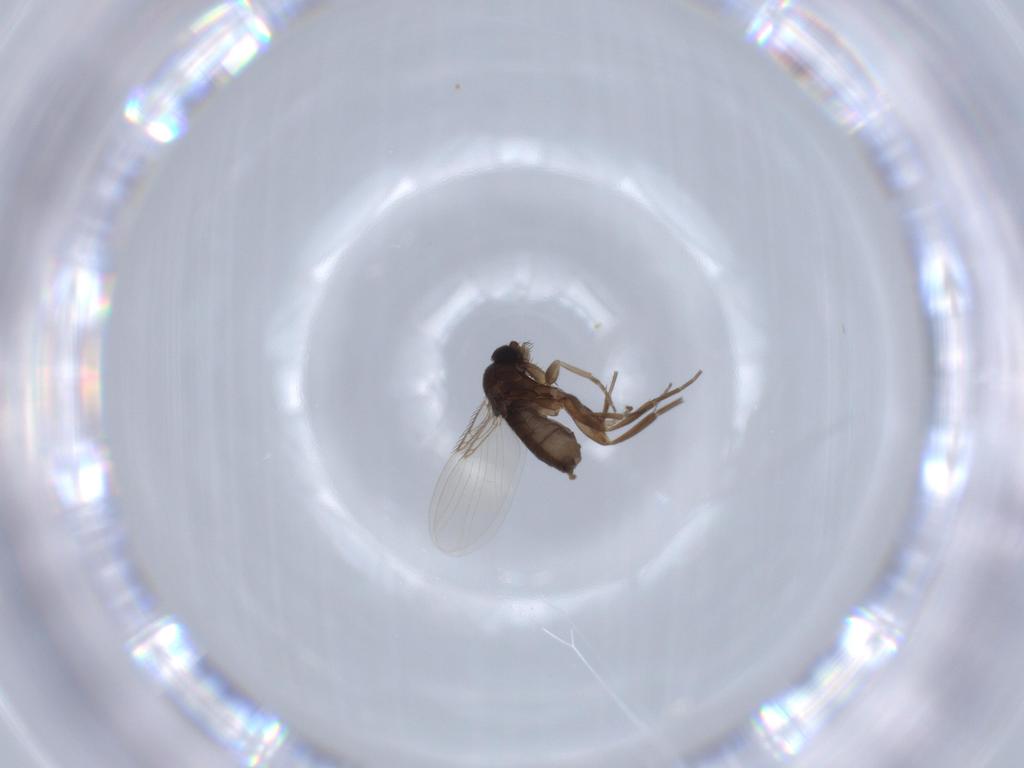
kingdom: Animalia
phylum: Arthropoda
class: Insecta
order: Diptera
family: Phoridae
